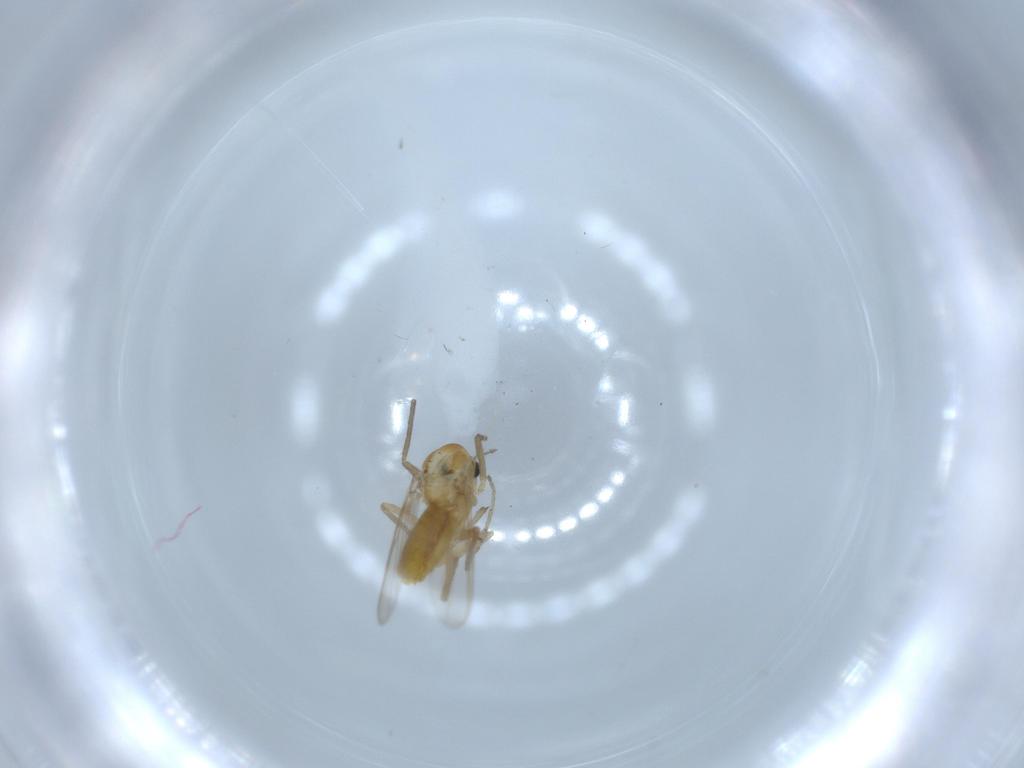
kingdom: Animalia
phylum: Arthropoda
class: Insecta
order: Diptera
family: Chironomidae
